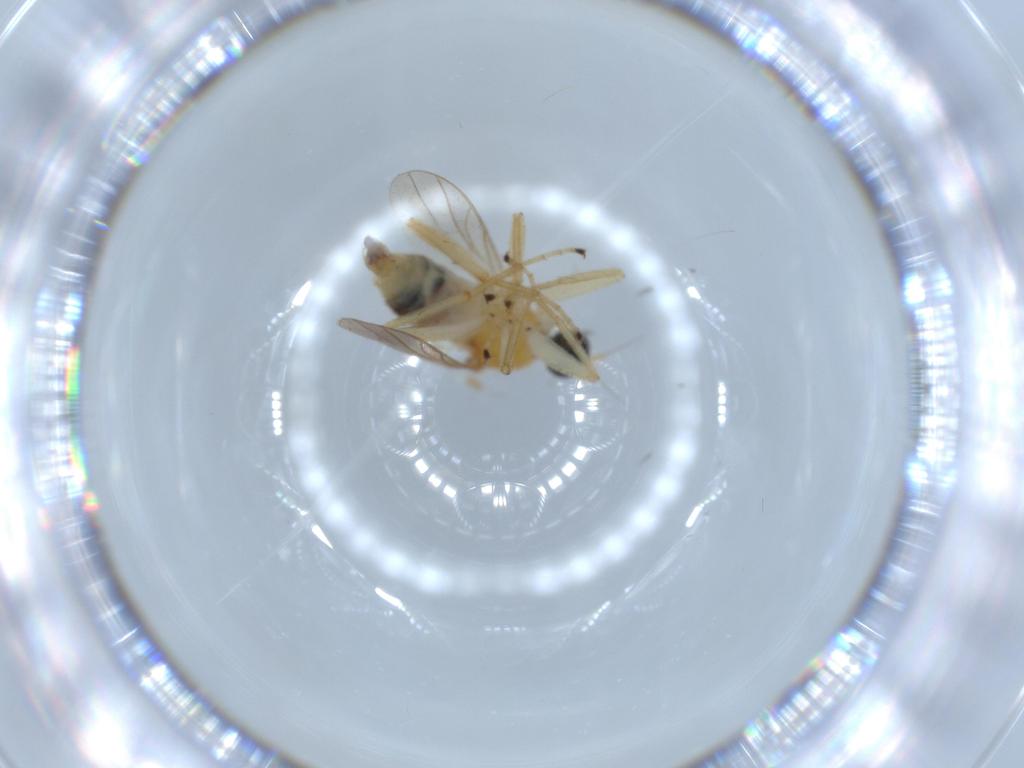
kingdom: Animalia
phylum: Arthropoda
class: Insecta
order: Diptera
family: Hybotidae
